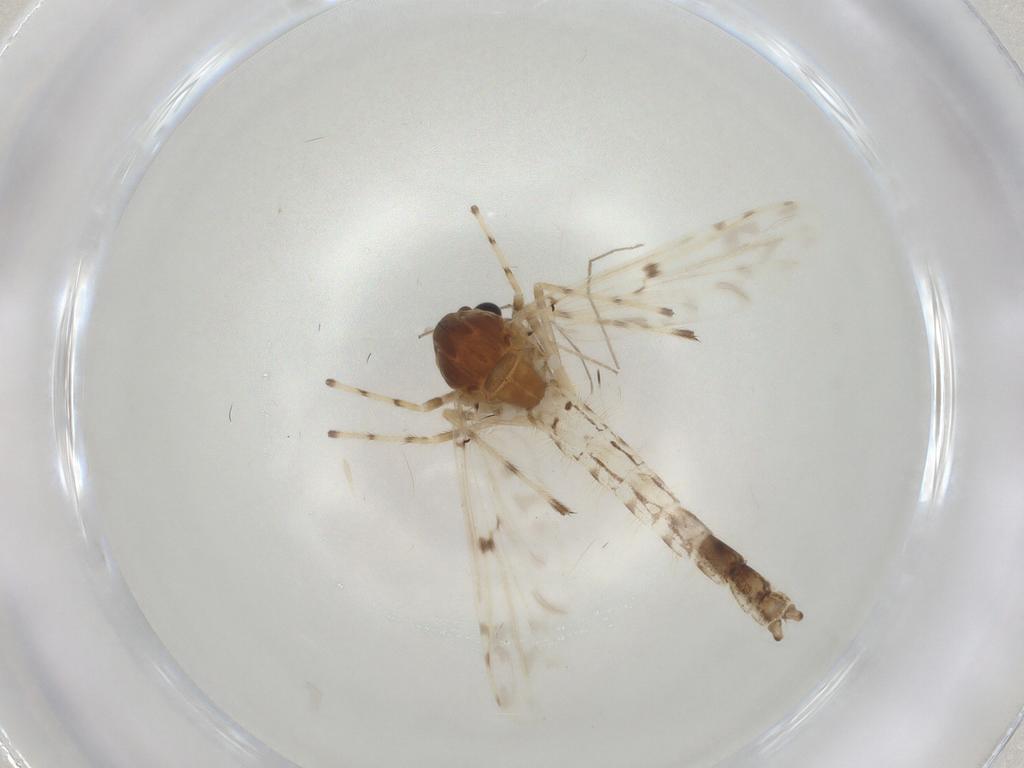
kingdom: Animalia
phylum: Arthropoda
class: Insecta
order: Diptera
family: Chironomidae
